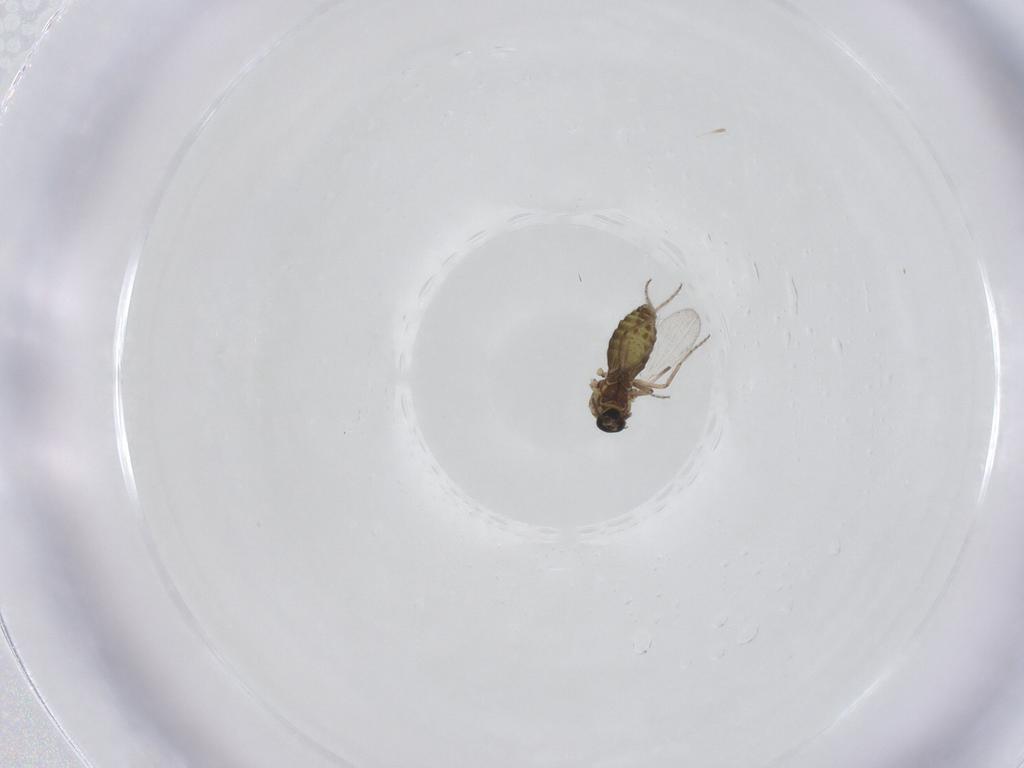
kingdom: Animalia
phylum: Arthropoda
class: Insecta
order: Diptera
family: Ceratopogonidae
